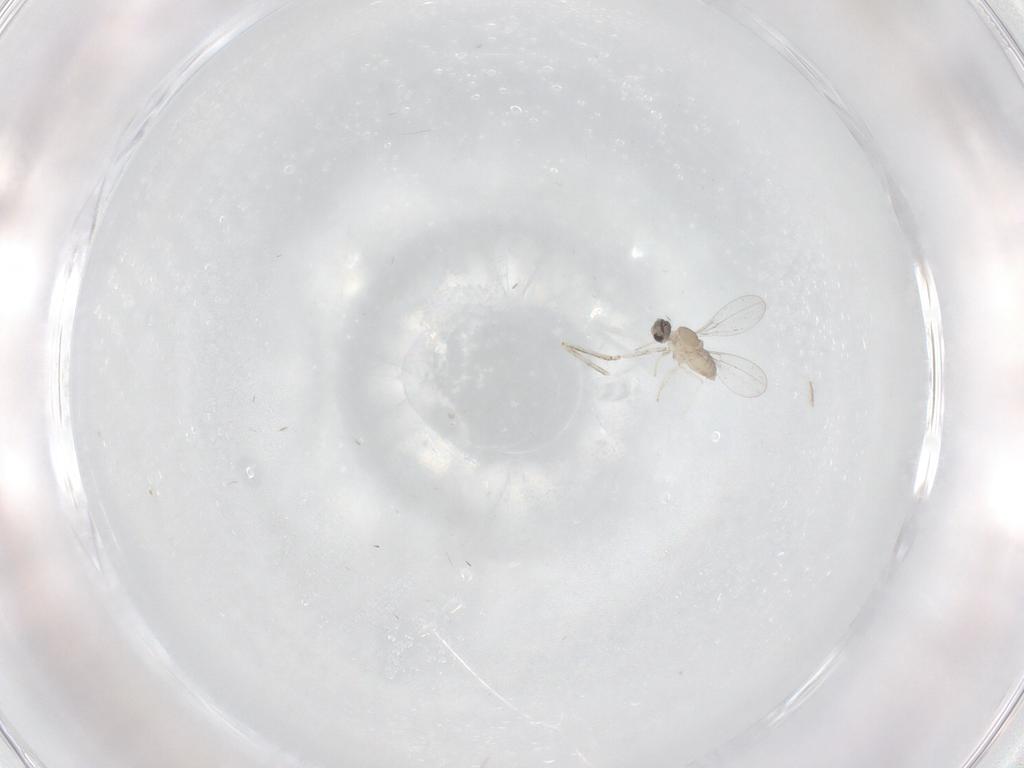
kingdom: Animalia
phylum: Arthropoda
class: Insecta
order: Diptera
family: Cecidomyiidae
